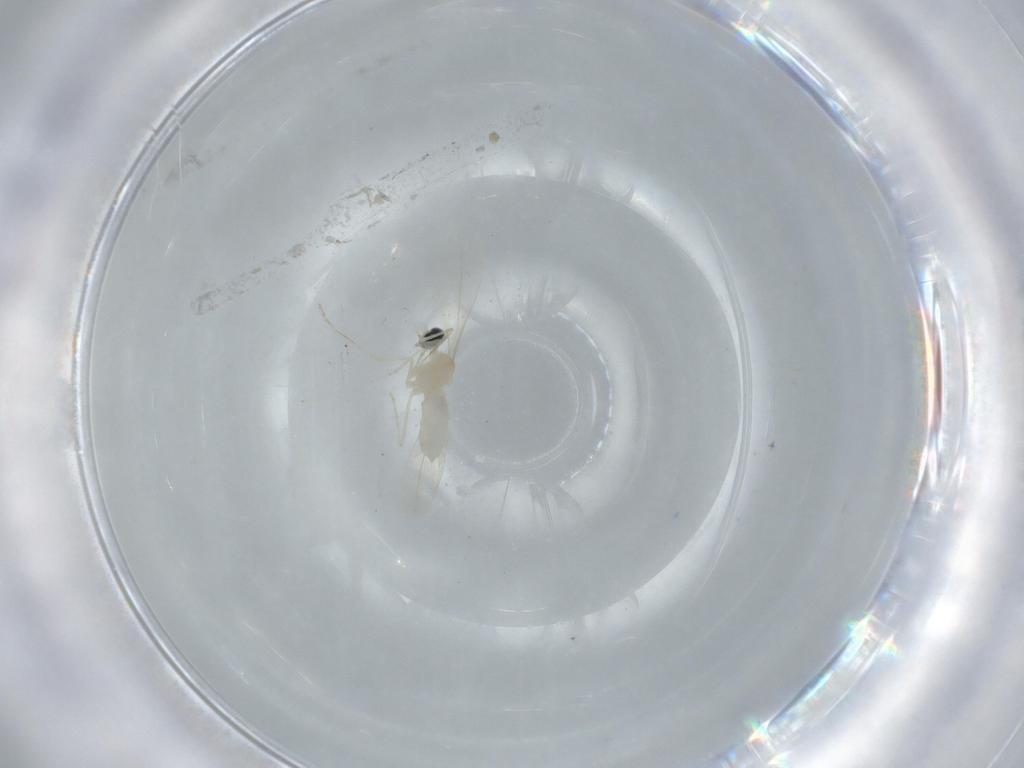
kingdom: Animalia
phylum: Arthropoda
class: Insecta
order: Diptera
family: Cecidomyiidae
